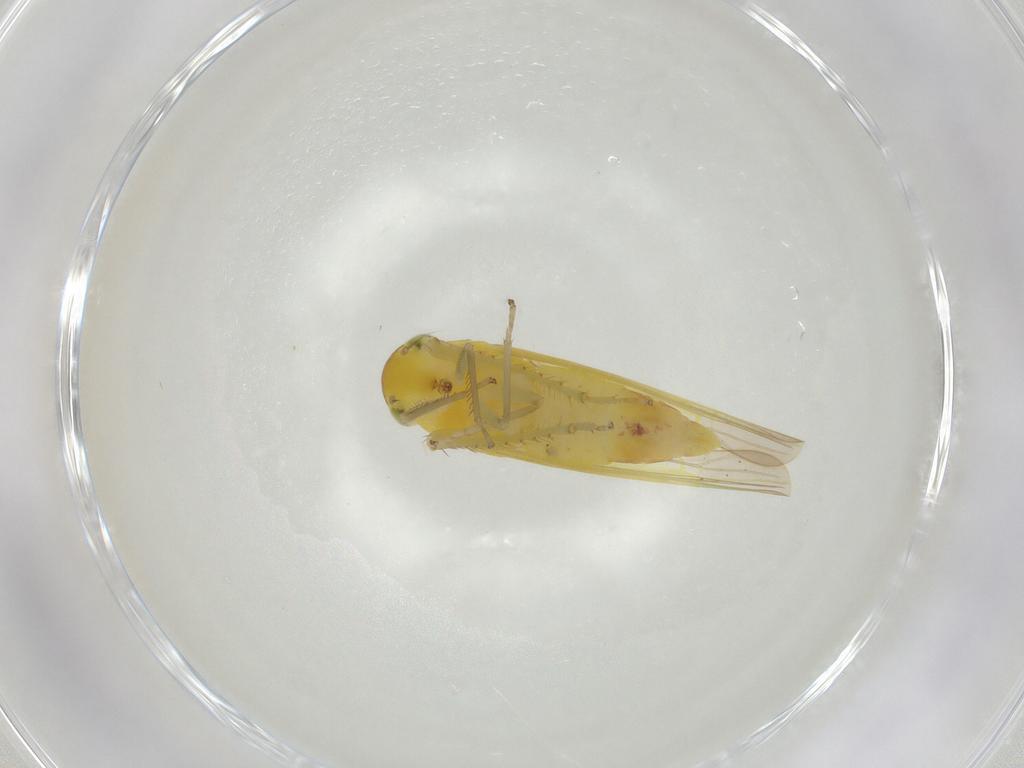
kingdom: Animalia
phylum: Arthropoda
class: Insecta
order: Hemiptera
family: Cicadellidae
